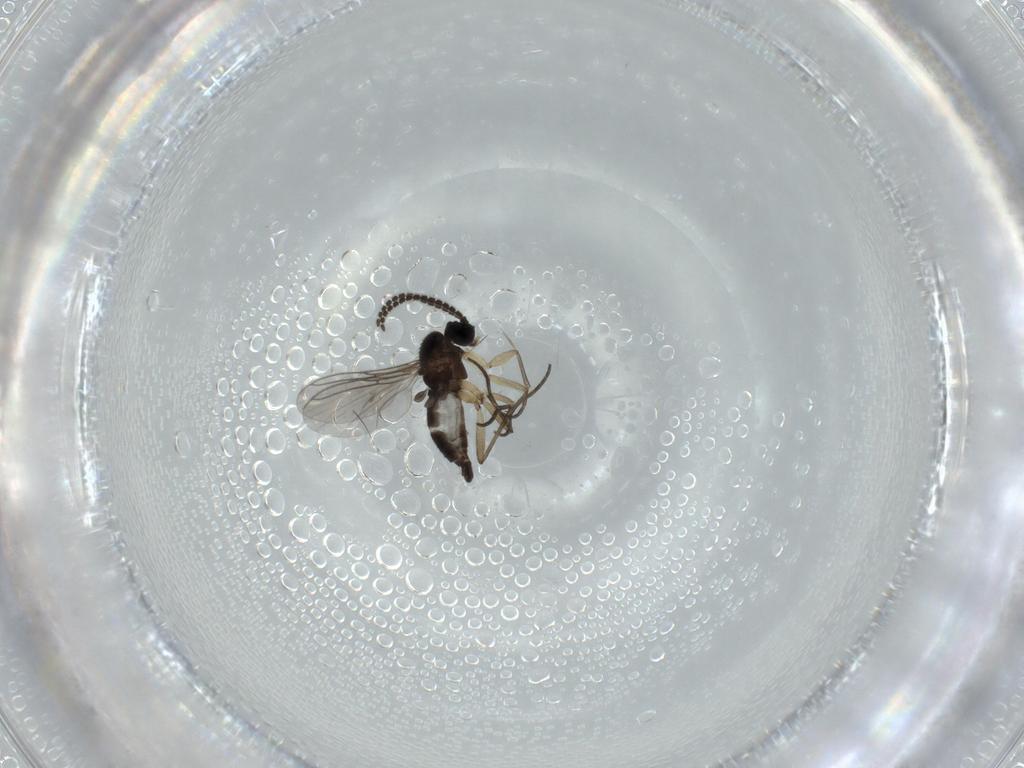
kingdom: Animalia
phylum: Arthropoda
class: Insecta
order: Diptera
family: Sciaridae
